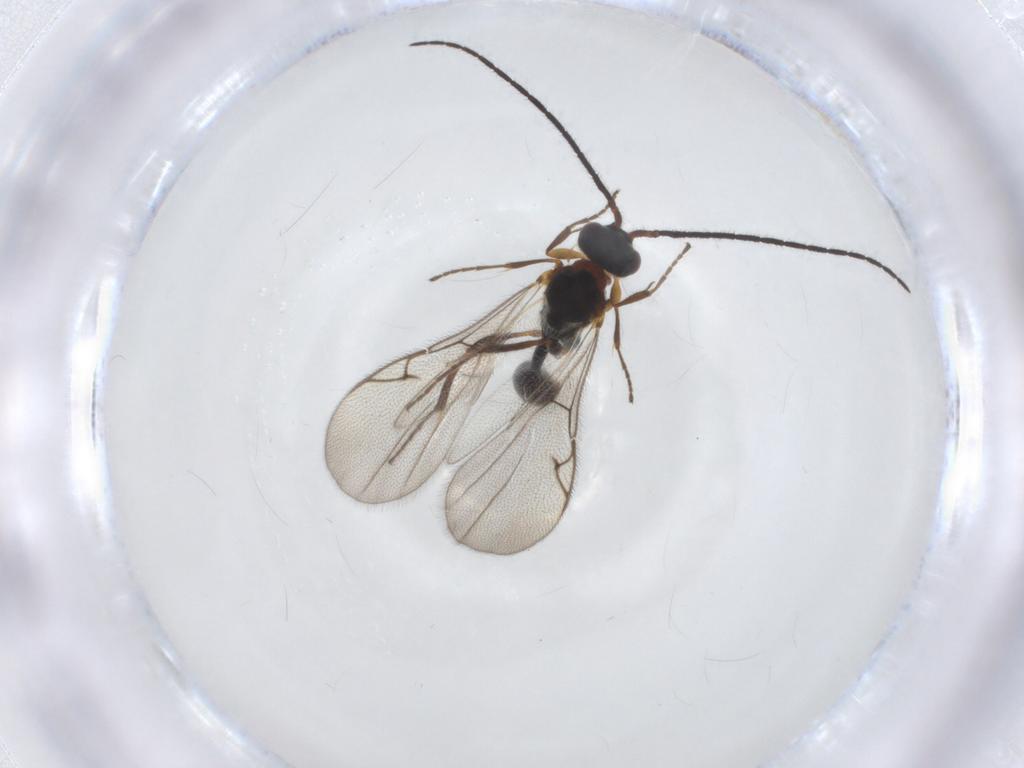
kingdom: Animalia
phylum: Arthropoda
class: Insecta
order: Hymenoptera
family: Diapriidae
